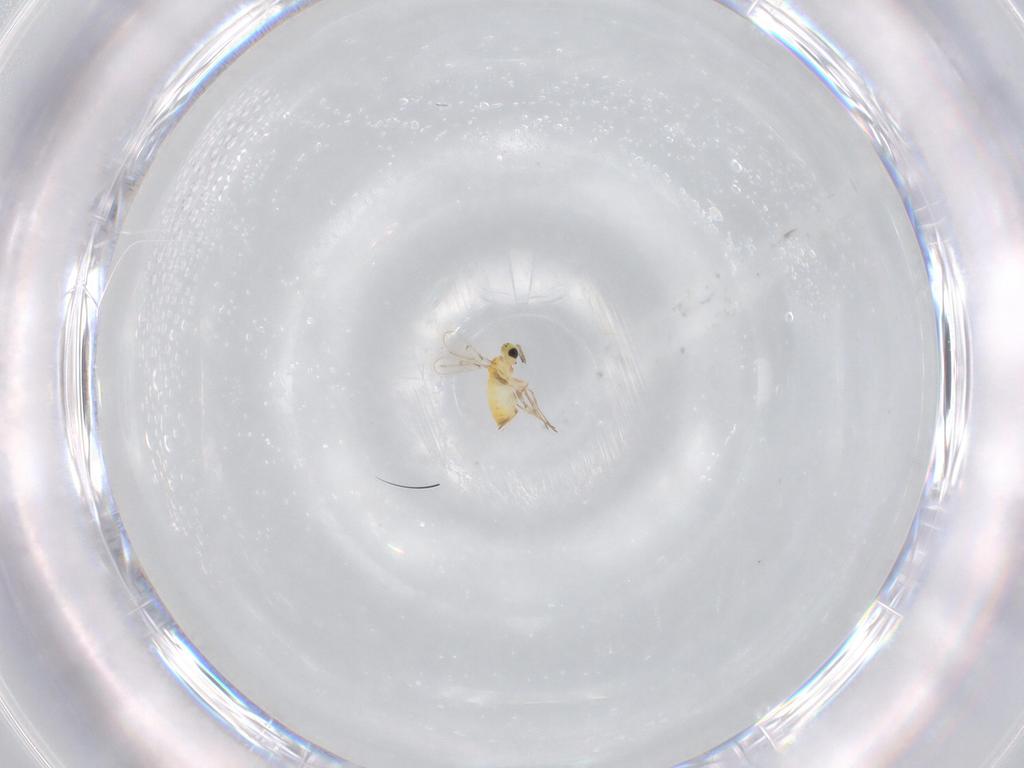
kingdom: Animalia
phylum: Arthropoda
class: Insecta
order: Hymenoptera
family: Trichogrammatidae
